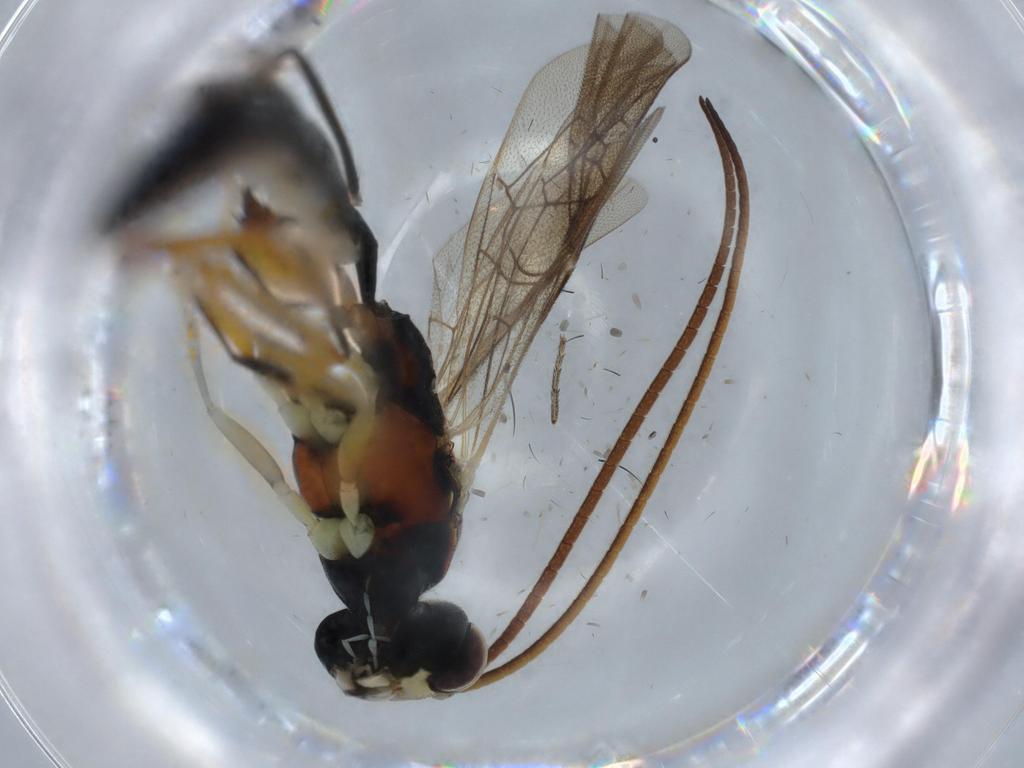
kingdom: Animalia
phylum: Arthropoda
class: Insecta
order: Hymenoptera
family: Ichneumonidae
